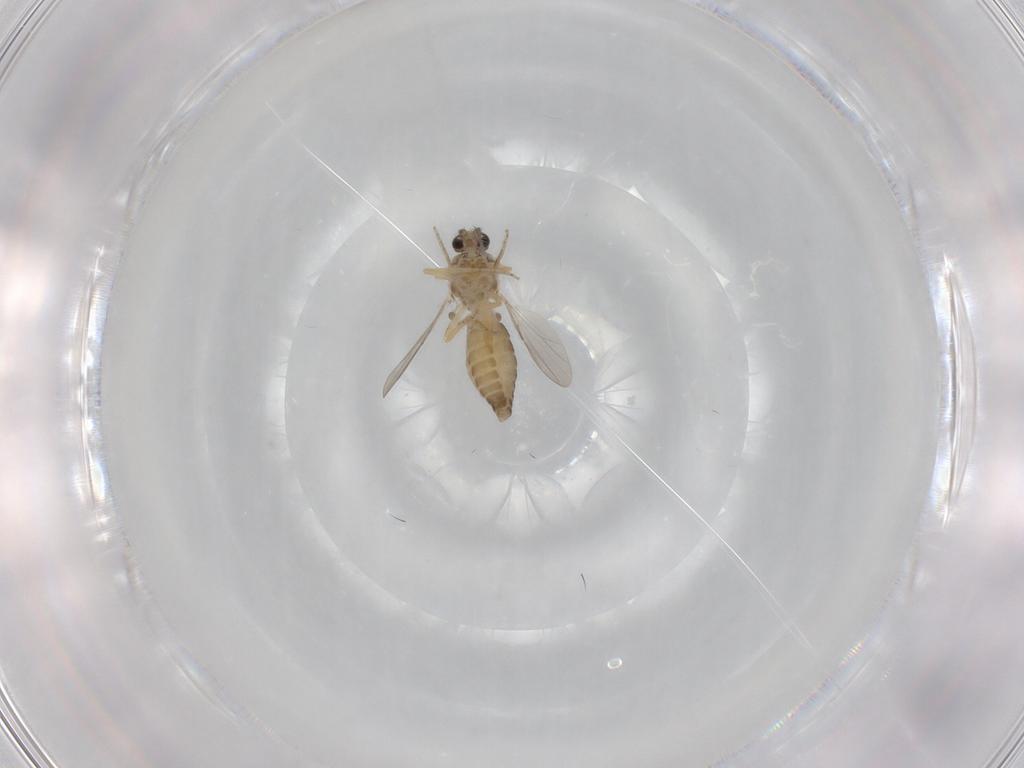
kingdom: Animalia
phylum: Arthropoda
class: Insecta
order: Diptera
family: Ceratopogonidae
